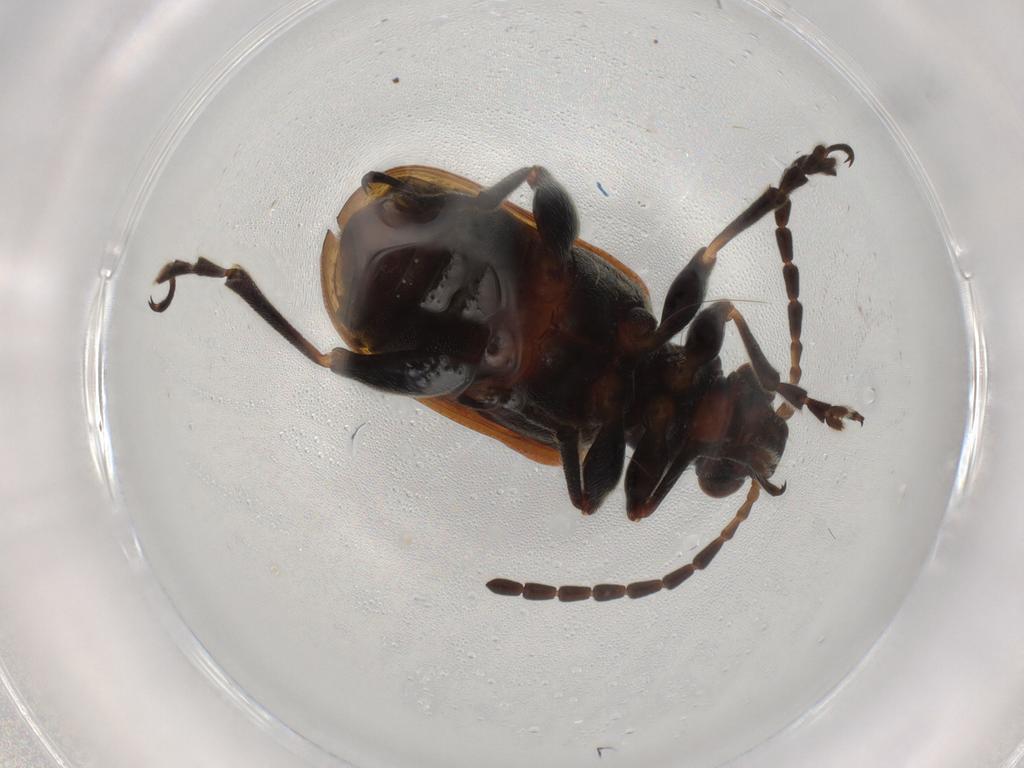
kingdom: Animalia
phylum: Arthropoda
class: Insecta
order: Coleoptera
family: Chrysomelidae
